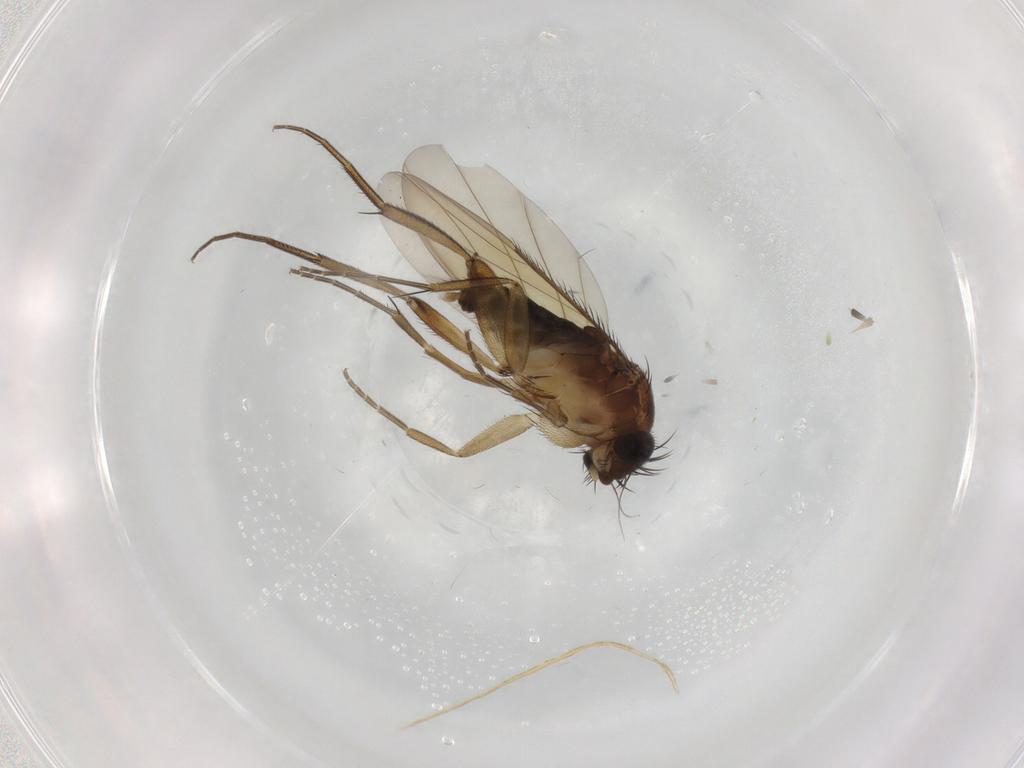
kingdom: Animalia
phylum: Arthropoda
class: Insecta
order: Diptera
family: Phoridae
